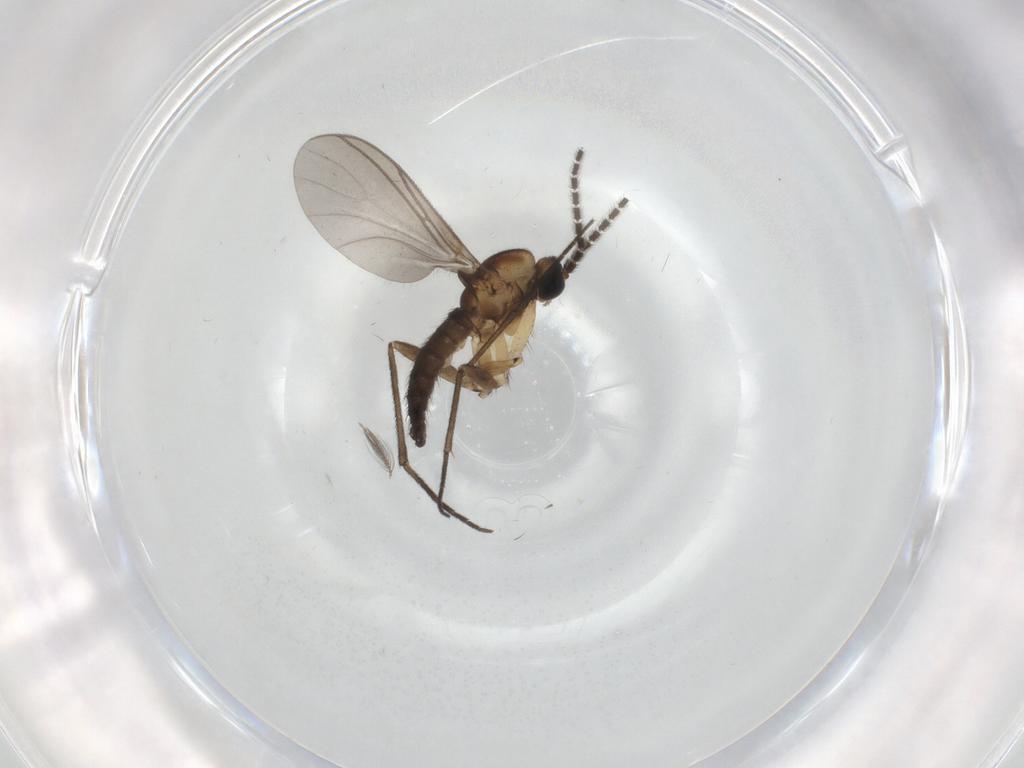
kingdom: Animalia
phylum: Arthropoda
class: Insecta
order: Diptera
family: Sciaridae
